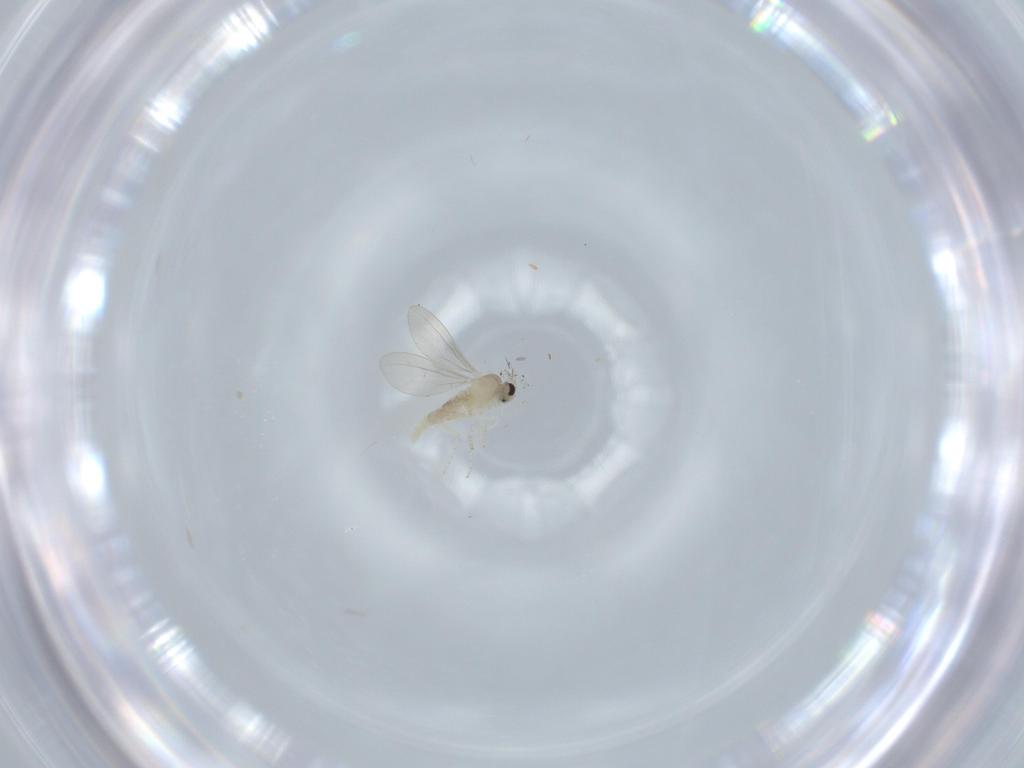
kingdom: Animalia
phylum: Arthropoda
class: Insecta
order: Diptera
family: Cecidomyiidae
